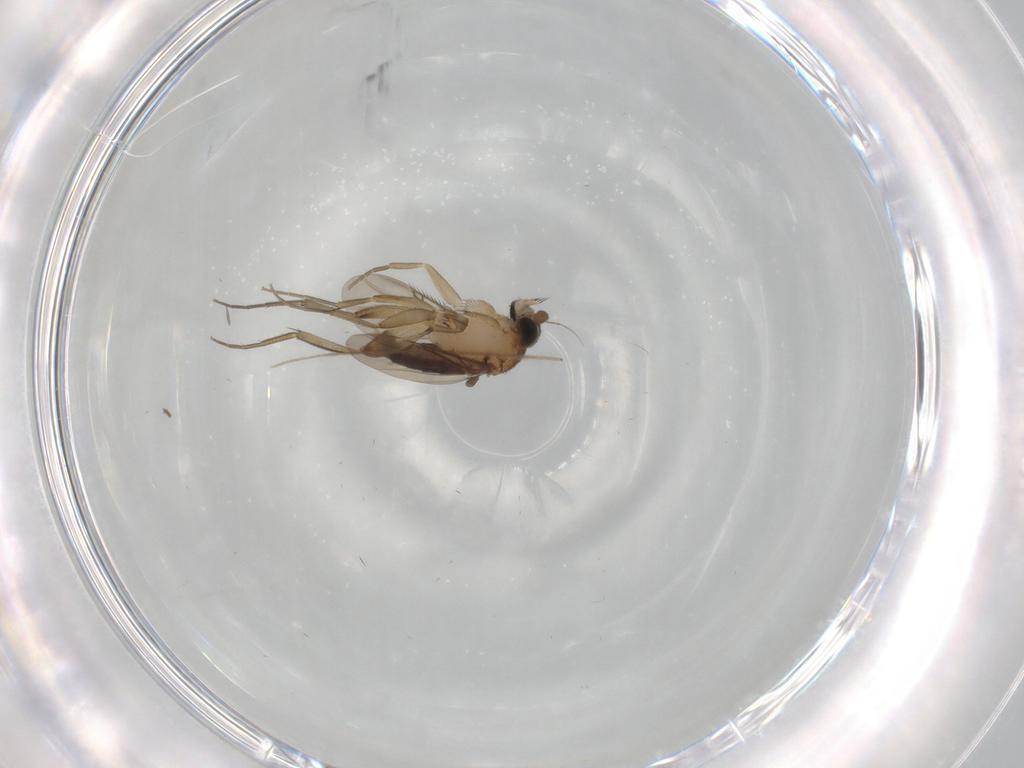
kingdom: Animalia
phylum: Arthropoda
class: Insecta
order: Diptera
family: Phoridae
